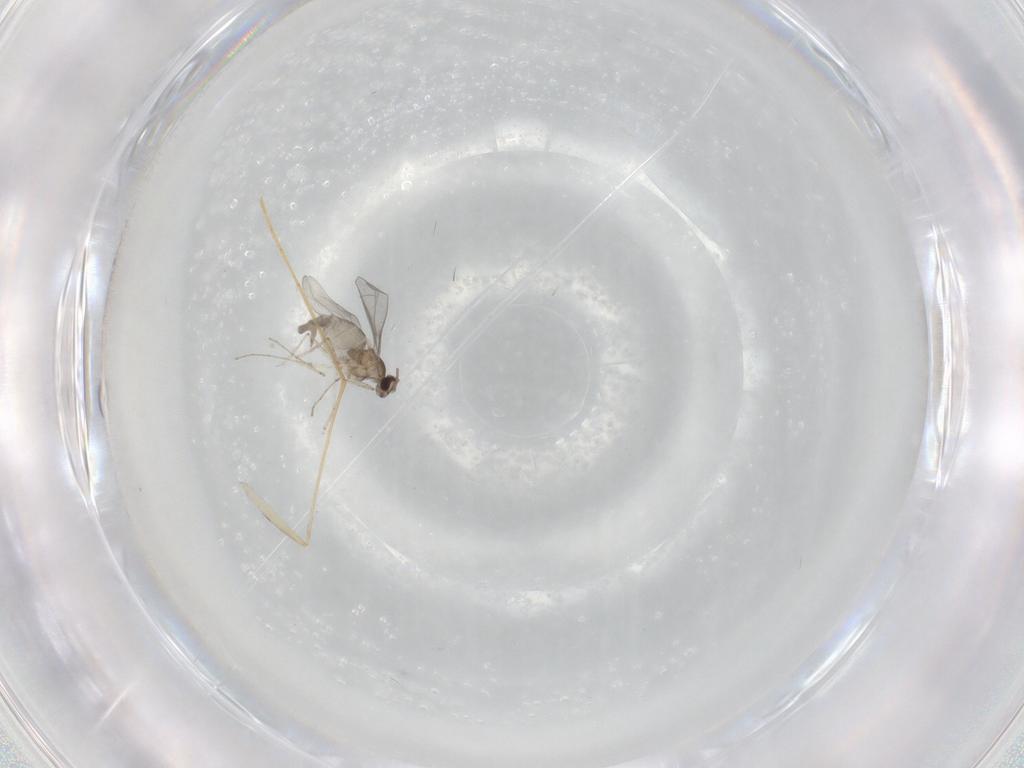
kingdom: Animalia
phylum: Arthropoda
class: Insecta
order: Diptera
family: Cecidomyiidae
